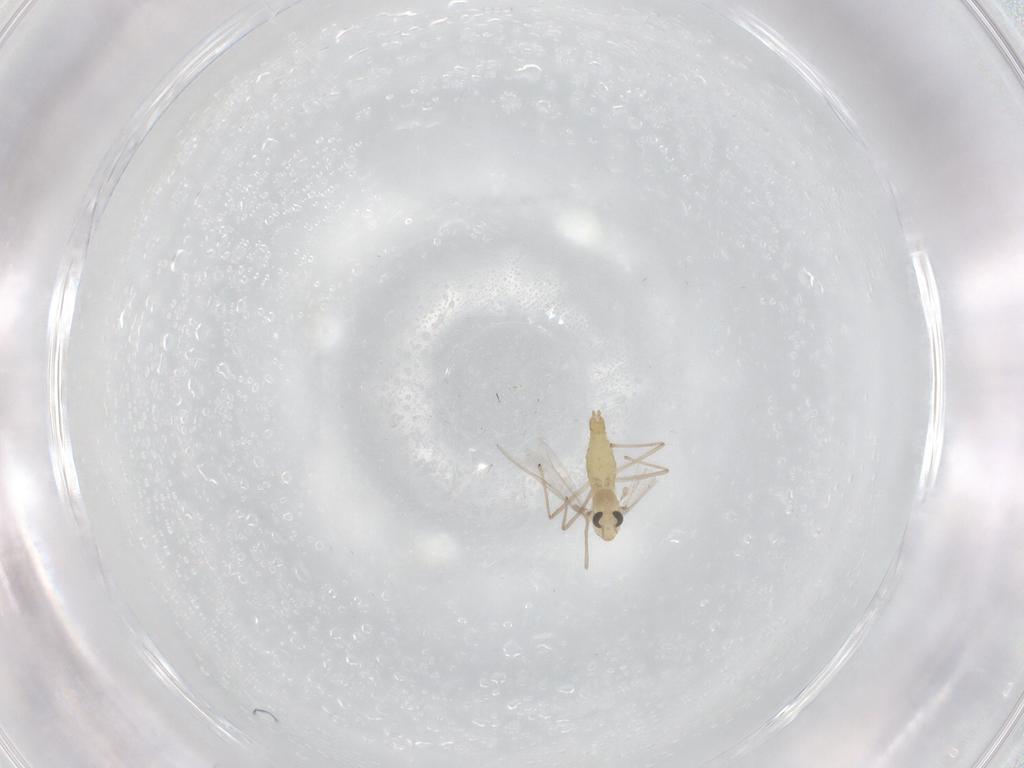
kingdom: Animalia
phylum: Arthropoda
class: Insecta
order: Diptera
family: Chironomidae
